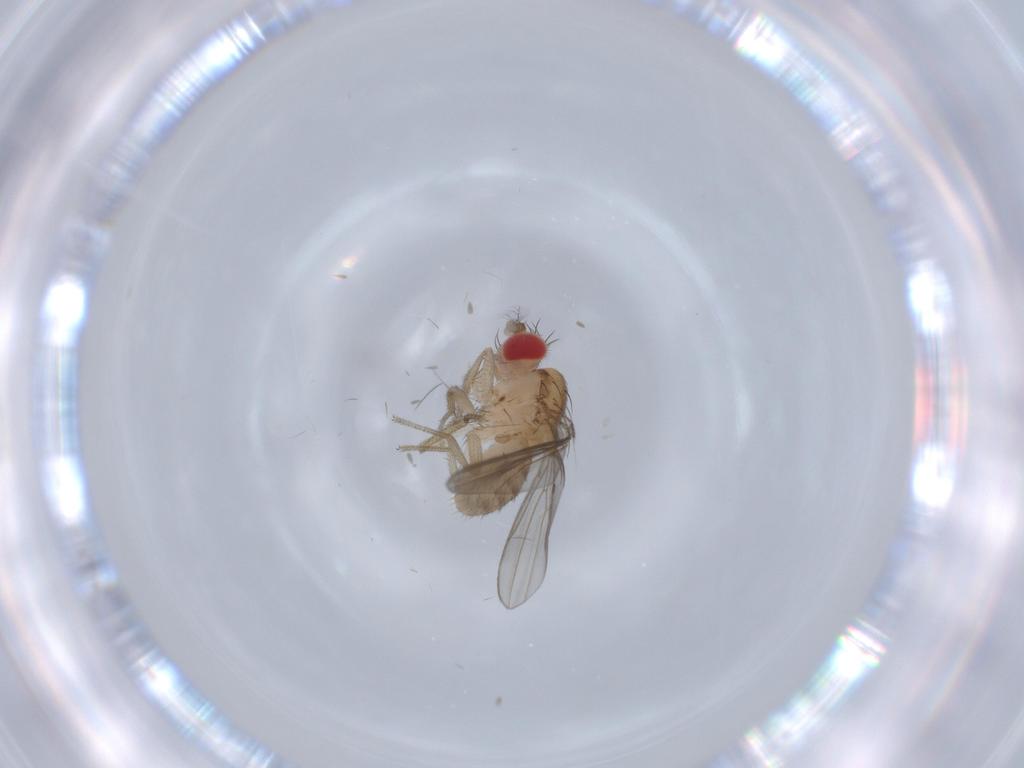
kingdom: Animalia
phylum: Arthropoda
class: Insecta
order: Diptera
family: Drosophilidae
